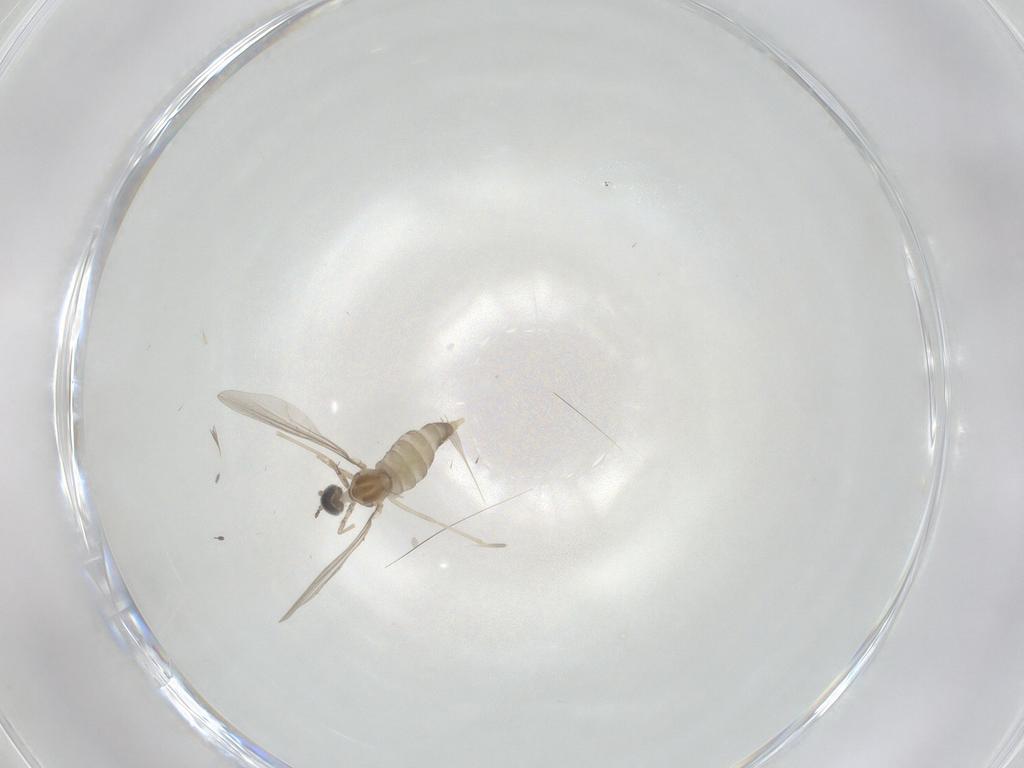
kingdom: Animalia
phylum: Arthropoda
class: Insecta
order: Diptera
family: Cecidomyiidae
